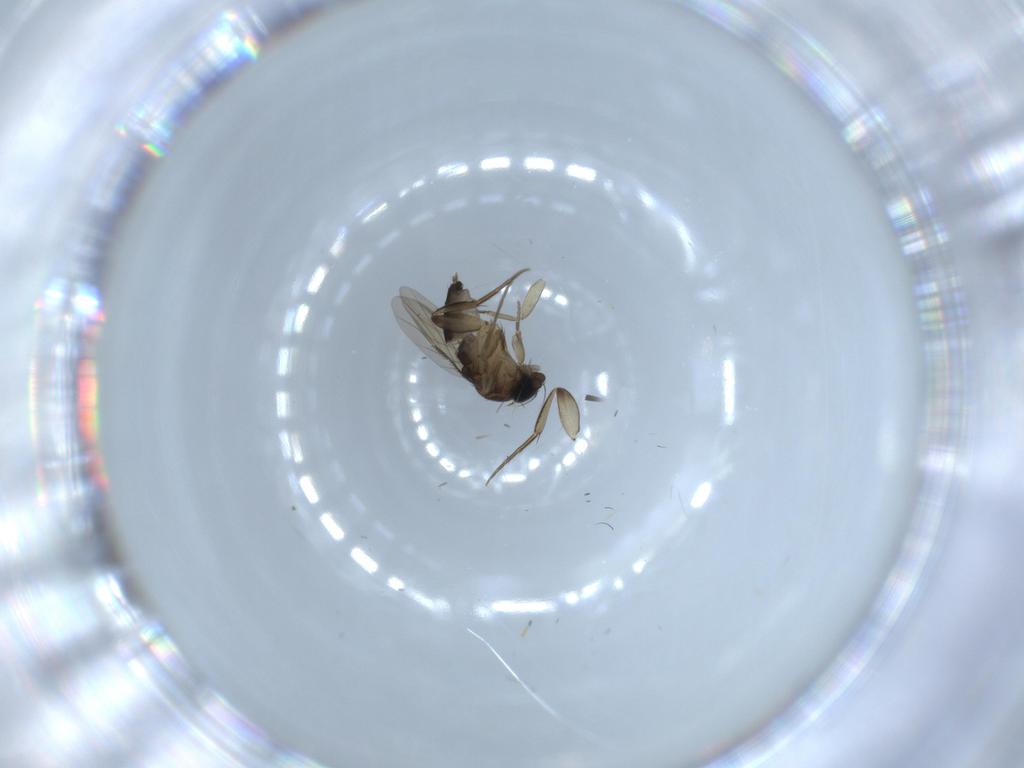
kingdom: Animalia
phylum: Arthropoda
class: Insecta
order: Diptera
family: Phoridae
